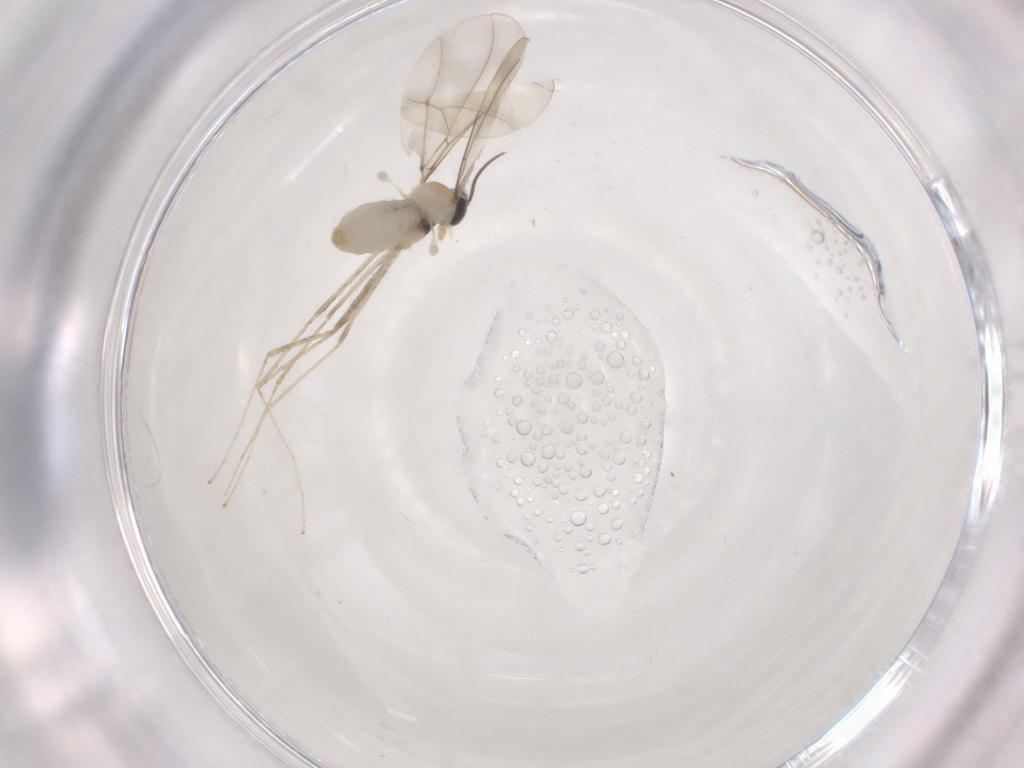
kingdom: Animalia
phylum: Arthropoda
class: Insecta
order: Diptera
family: Cecidomyiidae
